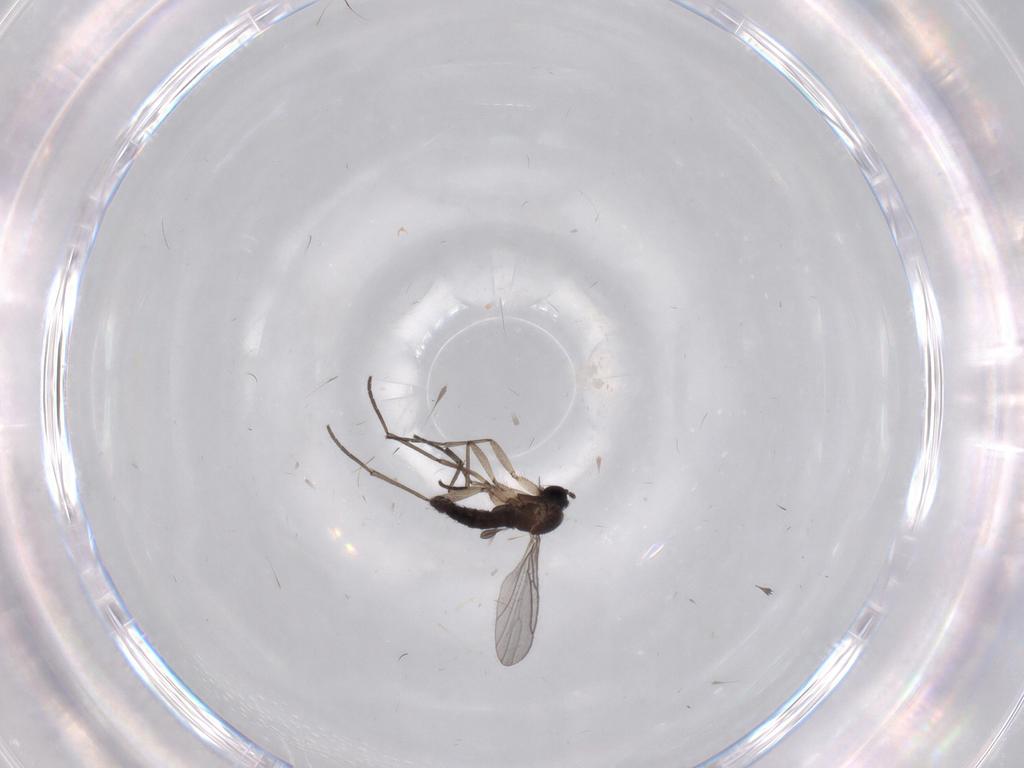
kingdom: Animalia
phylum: Arthropoda
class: Insecta
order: Diptera
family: Sciaridae
